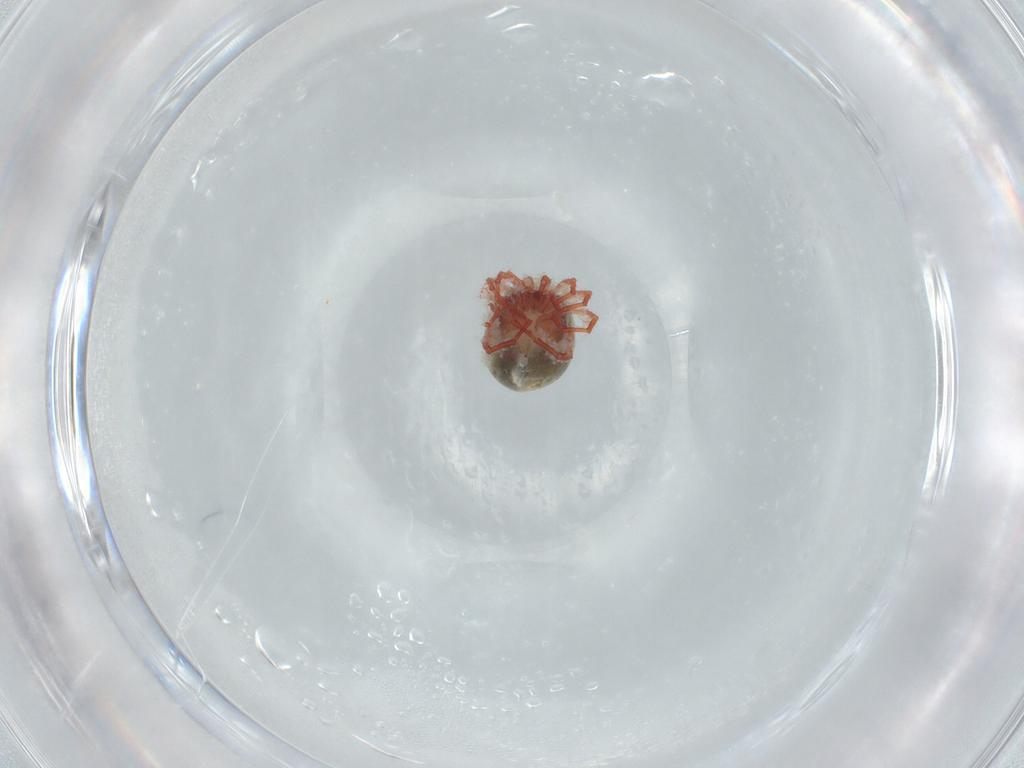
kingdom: Animalia
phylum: Arthropoda
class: Arachnida
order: Trombidiformes
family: Pionidae
